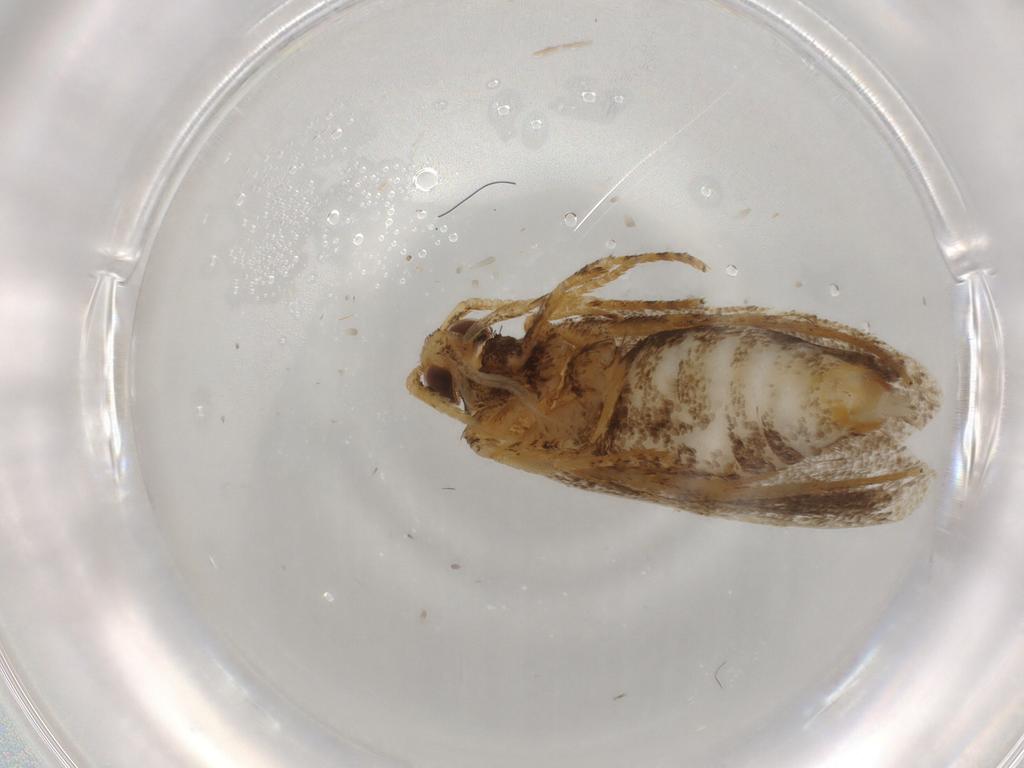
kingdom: Animalia
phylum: Arthropoda
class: Insecta
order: Lepidoptera
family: Lecithoceridae
